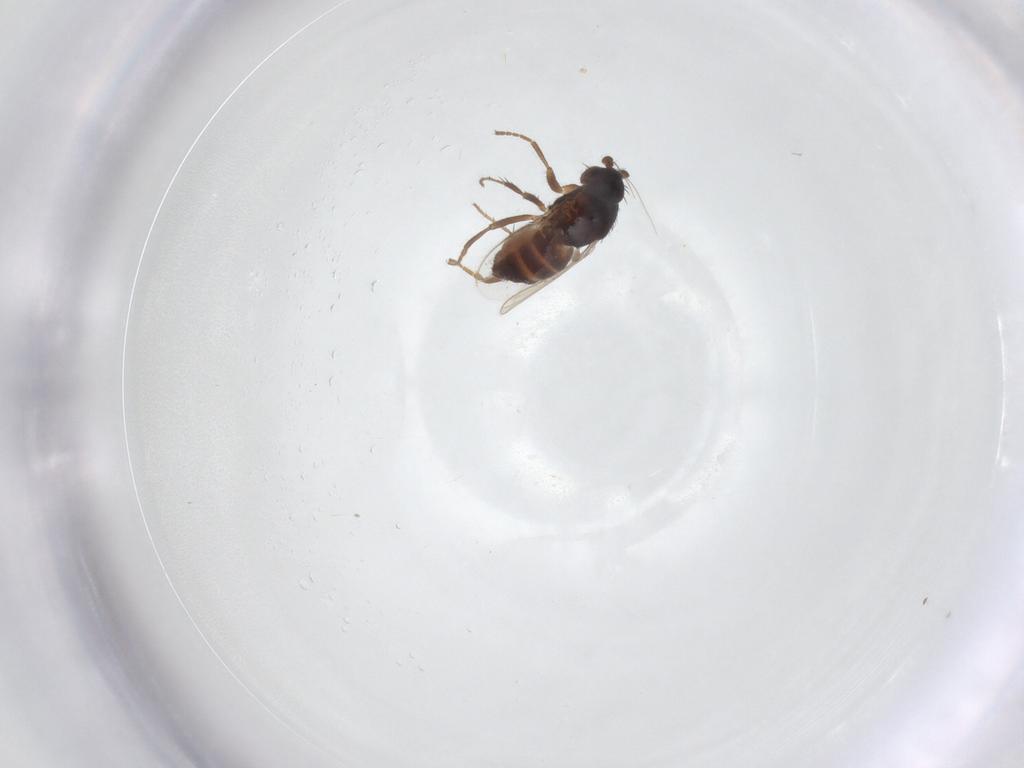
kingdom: Animalia
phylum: Arthropoda
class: Insecta
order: Diptera
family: Sphaeroceridae
